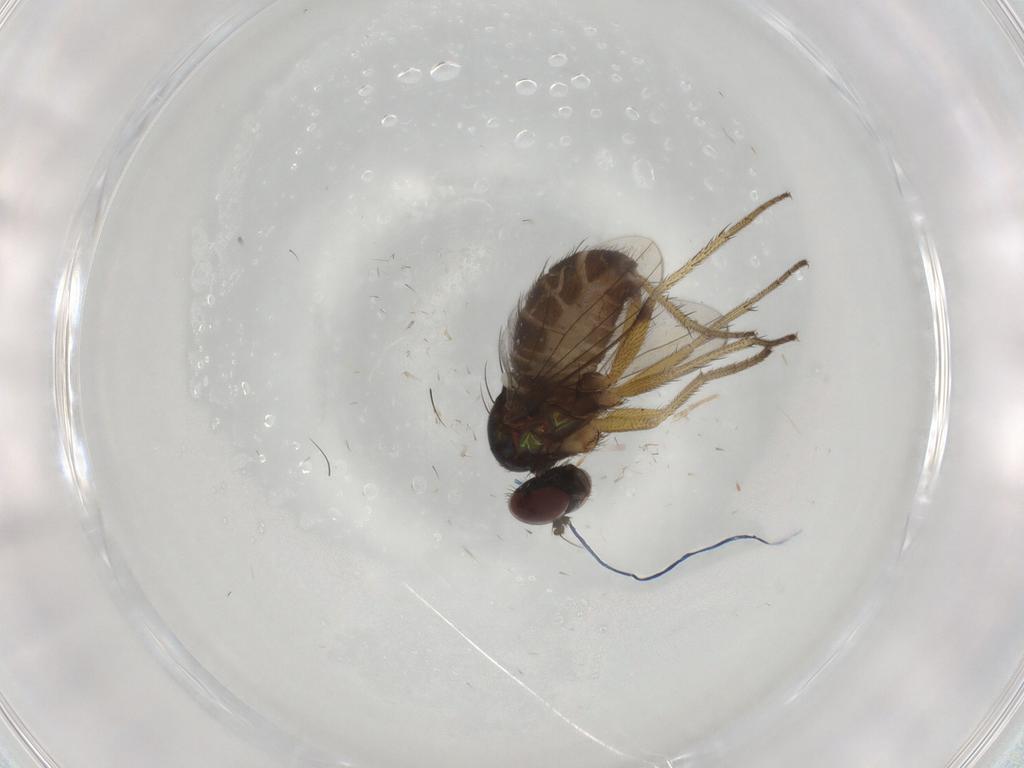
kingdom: Animalia
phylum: Arthropoda
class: Insecta
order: Diptera
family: Dolichopodidae
